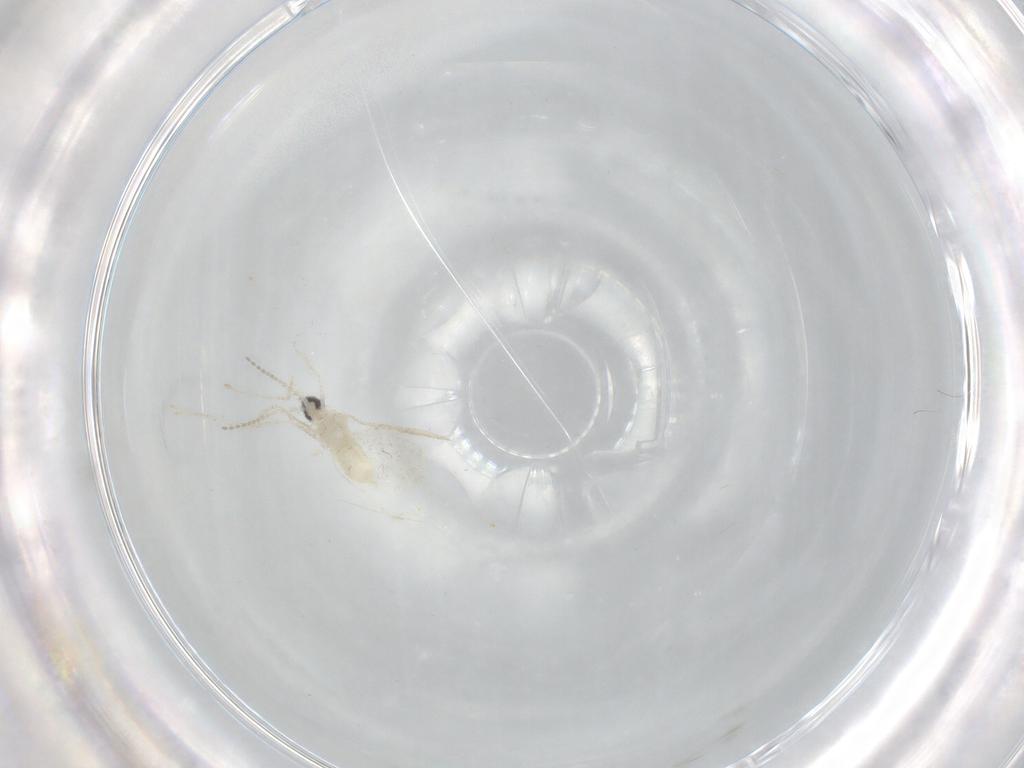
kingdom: Animalia
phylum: Arthropoda
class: Insecta
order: Diptera
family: Cecidomyiidae
